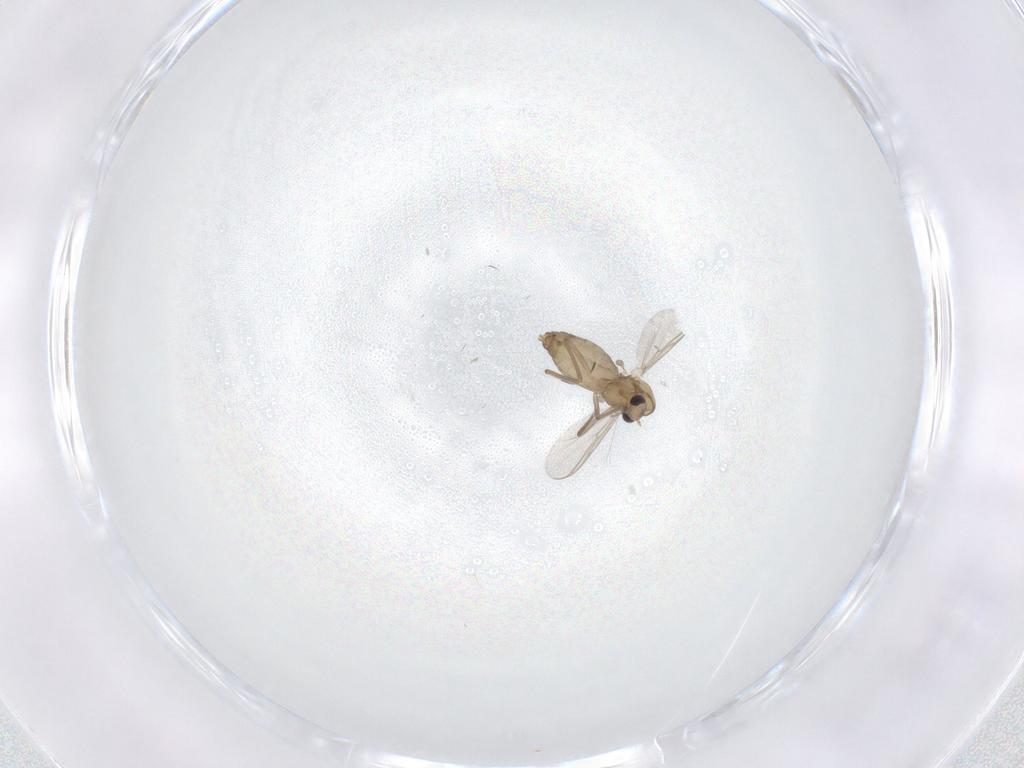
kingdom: Animalia
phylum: Arthropoda
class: Insecta
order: Diptera
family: Chironomidae
